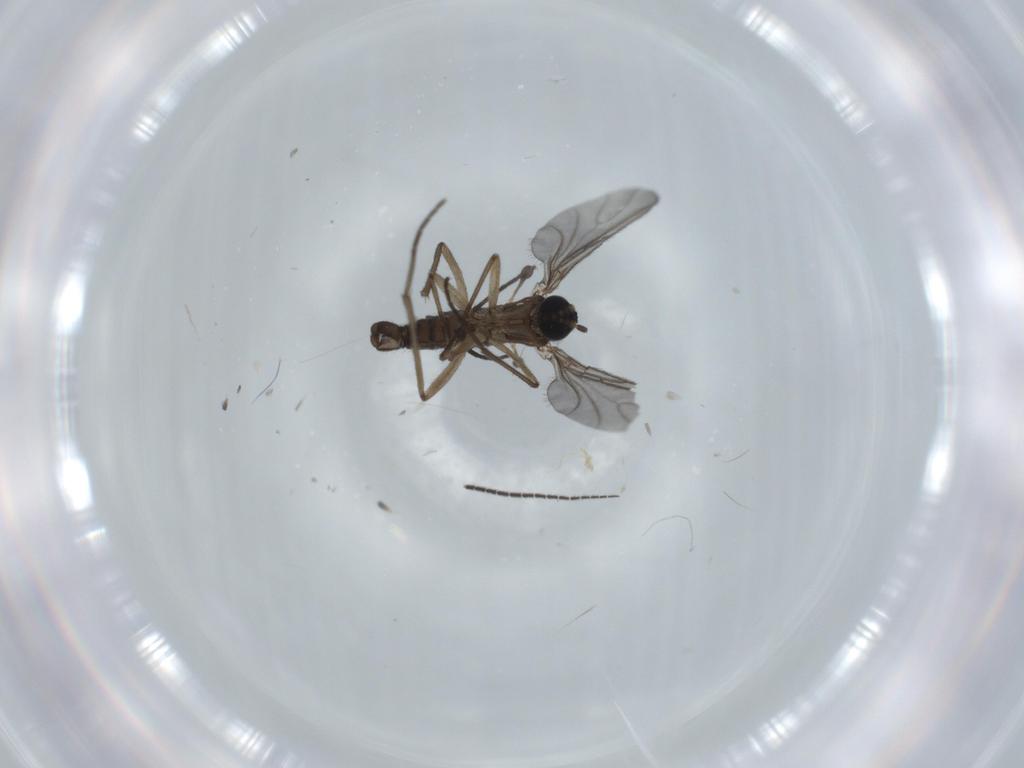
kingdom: Animalia
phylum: Arthropoda
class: Insecta
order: Diptera
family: Sciaridae
